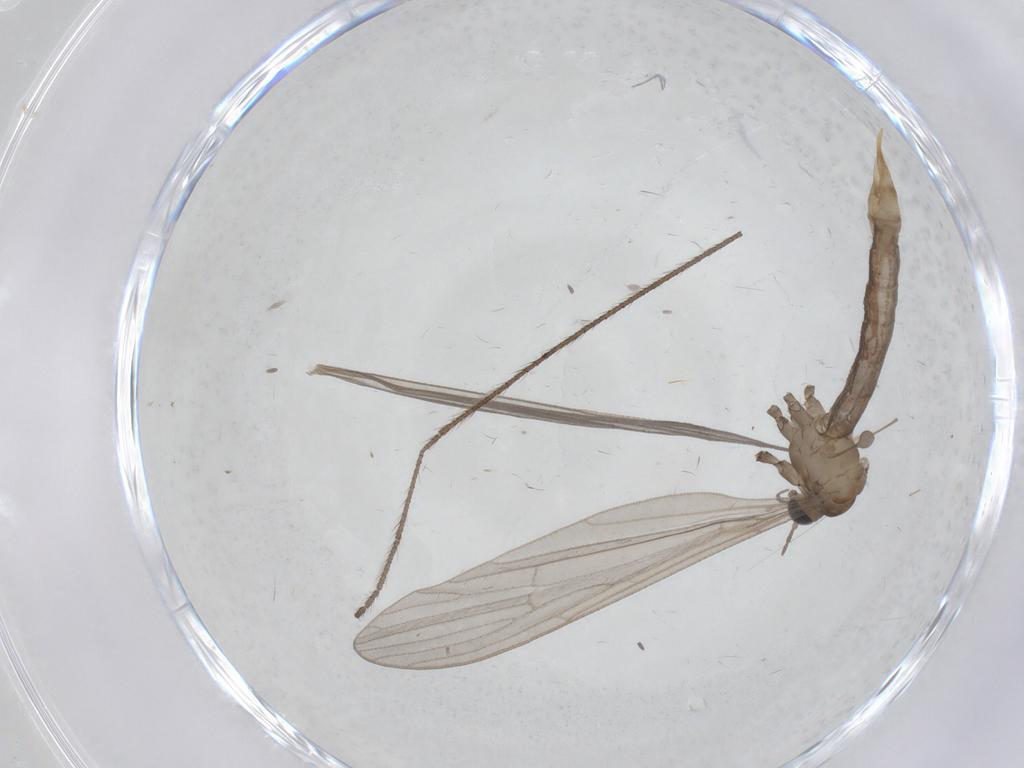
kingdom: Animalia
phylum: Arthropoda
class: Insecta
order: Diptera
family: Limoniidae
